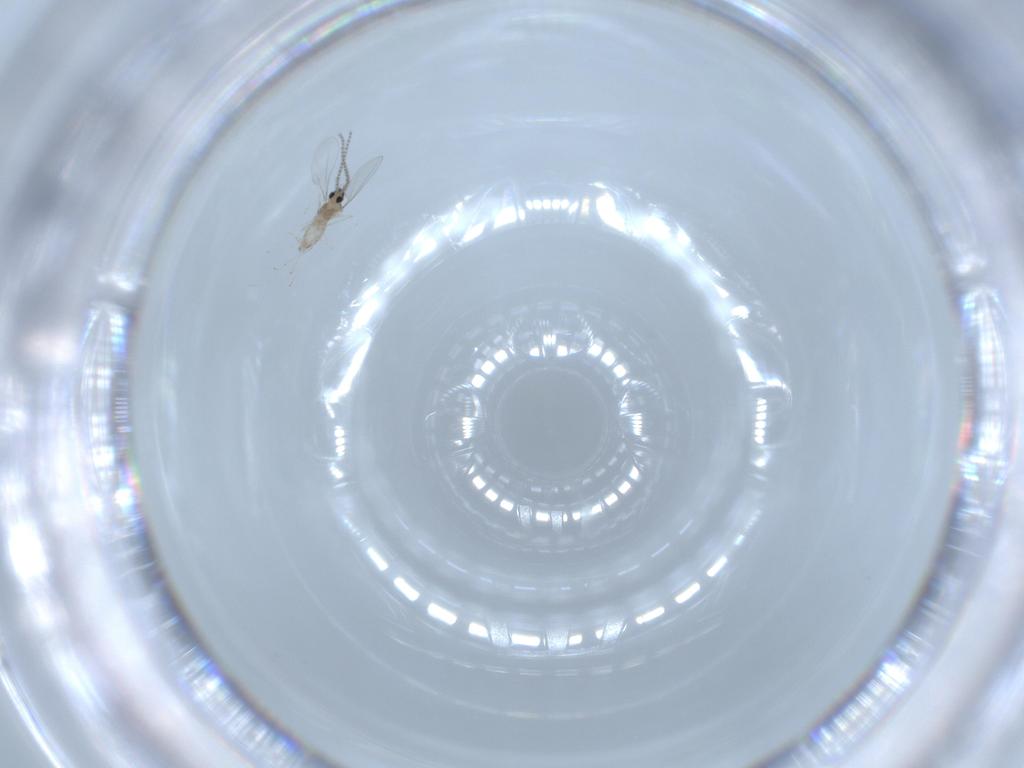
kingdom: Animalia
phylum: Arthropoda
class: Insecta
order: Diptera
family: Cecidomyiidae
